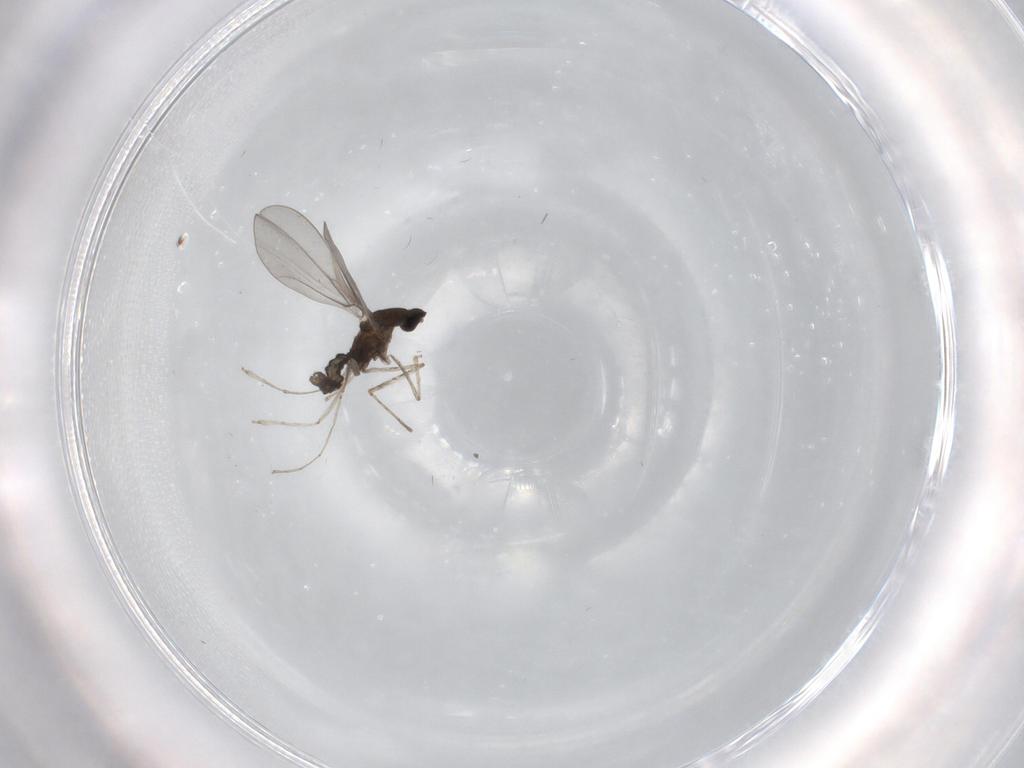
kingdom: Animalia
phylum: Arthropoda
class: Insecta
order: Diptera
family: Cecidomyiidae
